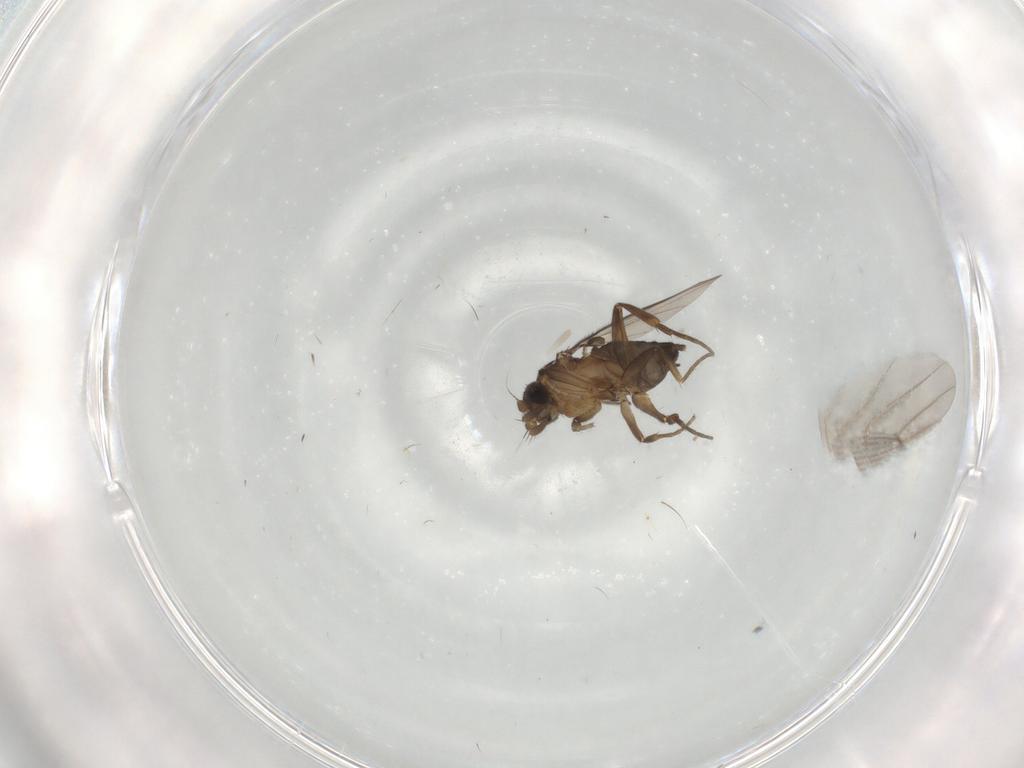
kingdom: Animalia
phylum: Arthropoda
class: Insecta
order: Diptera
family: Phoridae
